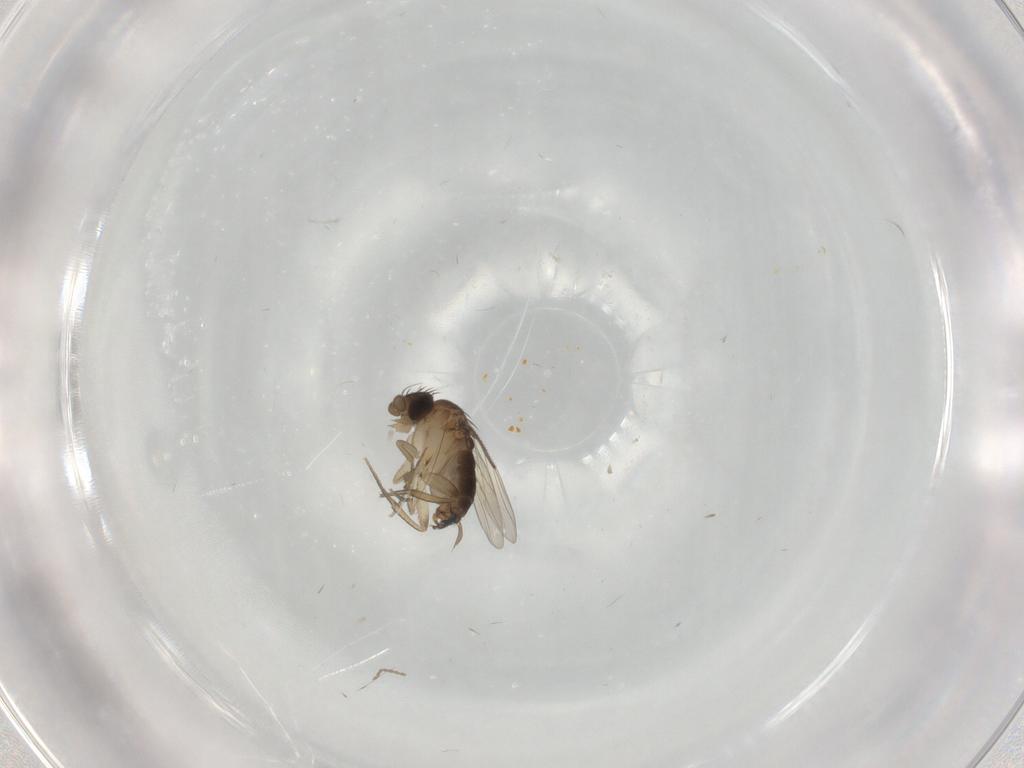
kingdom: Animalia
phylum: Arthropoda
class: Insecta
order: Diptera
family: Cecidomyiidae
